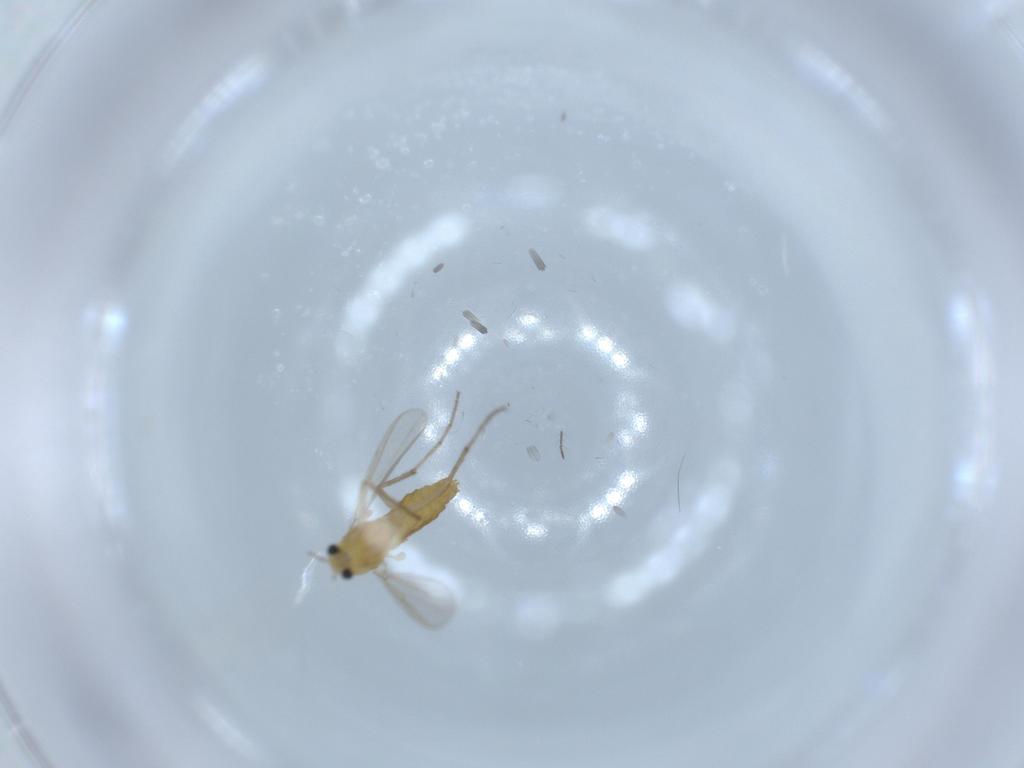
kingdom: Animalia
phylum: Arthropoda
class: Insecta
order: Diptera
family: Chironomidae
